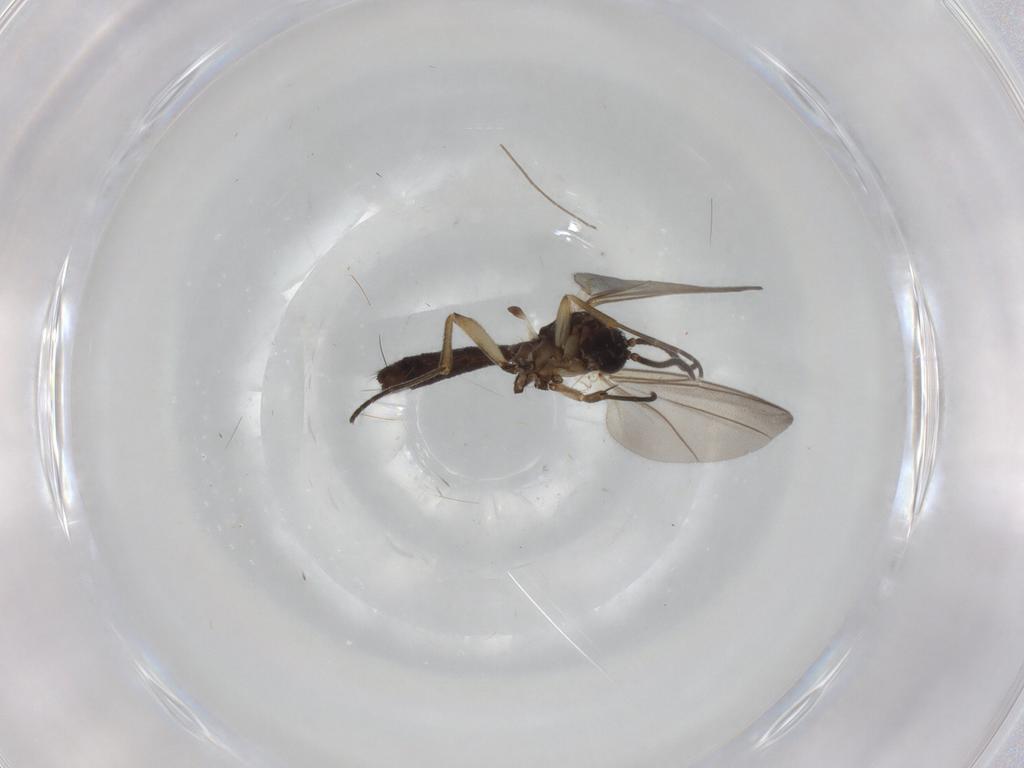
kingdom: Animalia
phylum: Arthropoda
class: Insecta
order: Diptera
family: Mycetophilidae
